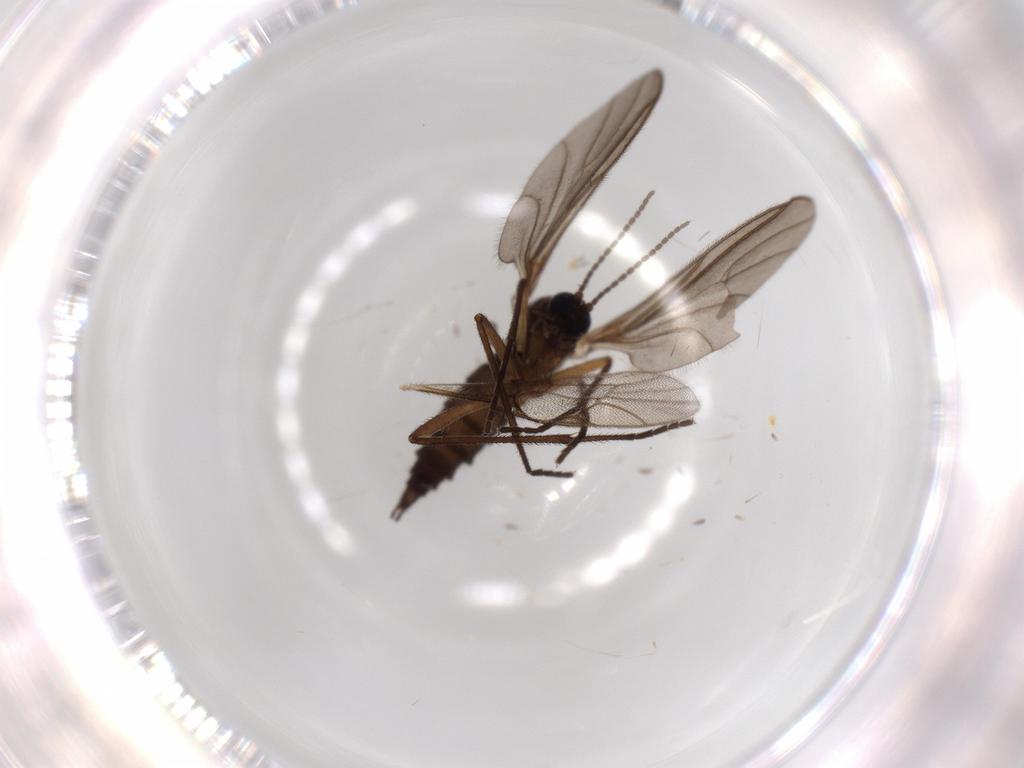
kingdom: Animalia
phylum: Arthropoda
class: Insecta
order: Diptera
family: Sciaridae
